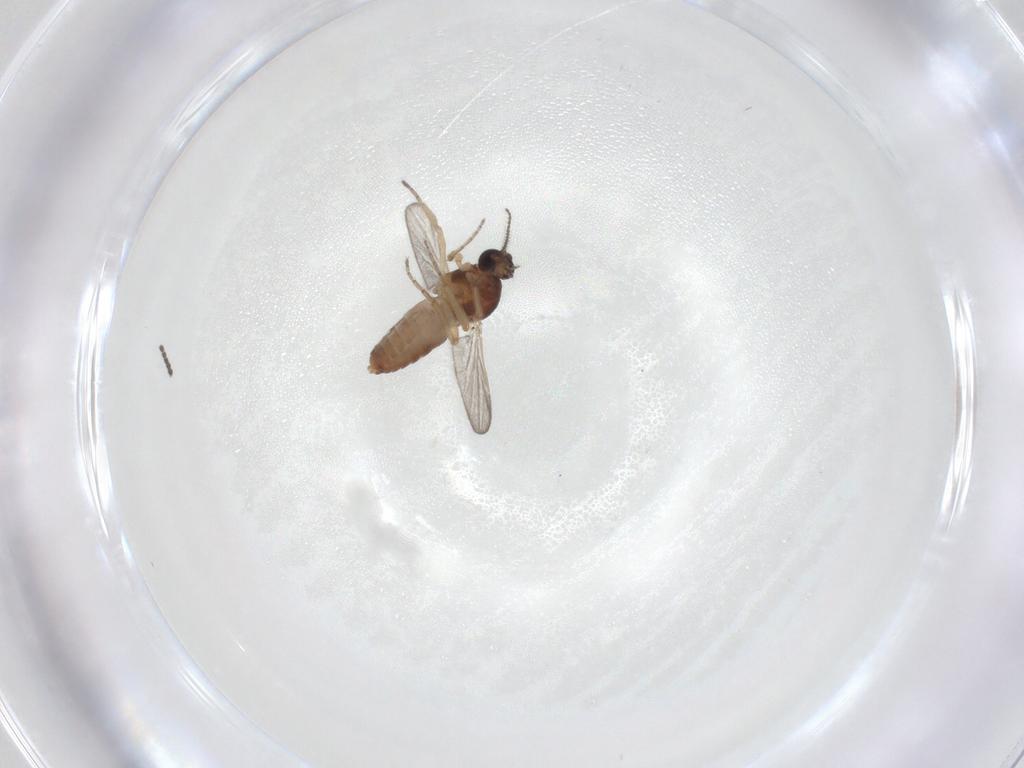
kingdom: Animalia
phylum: Arthropoda
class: Insecta
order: Diptera
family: Ceratopogonidae
